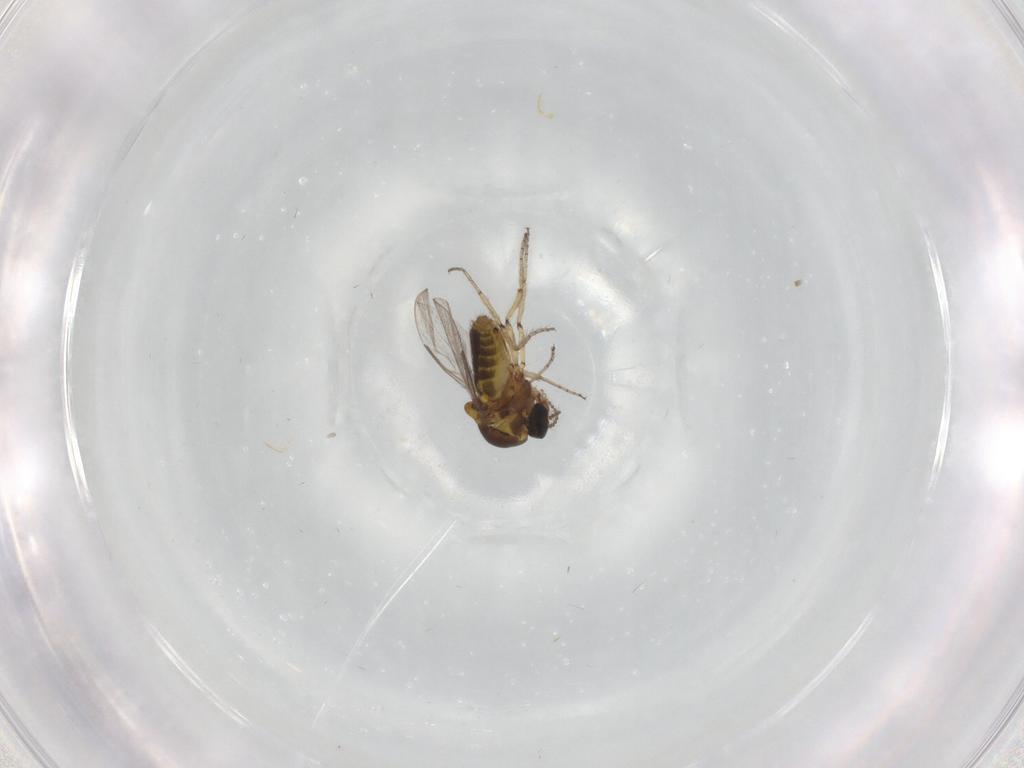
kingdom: Animalia
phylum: Arthropoda
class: Insecta
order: Diptera
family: Ceratopogonidae
